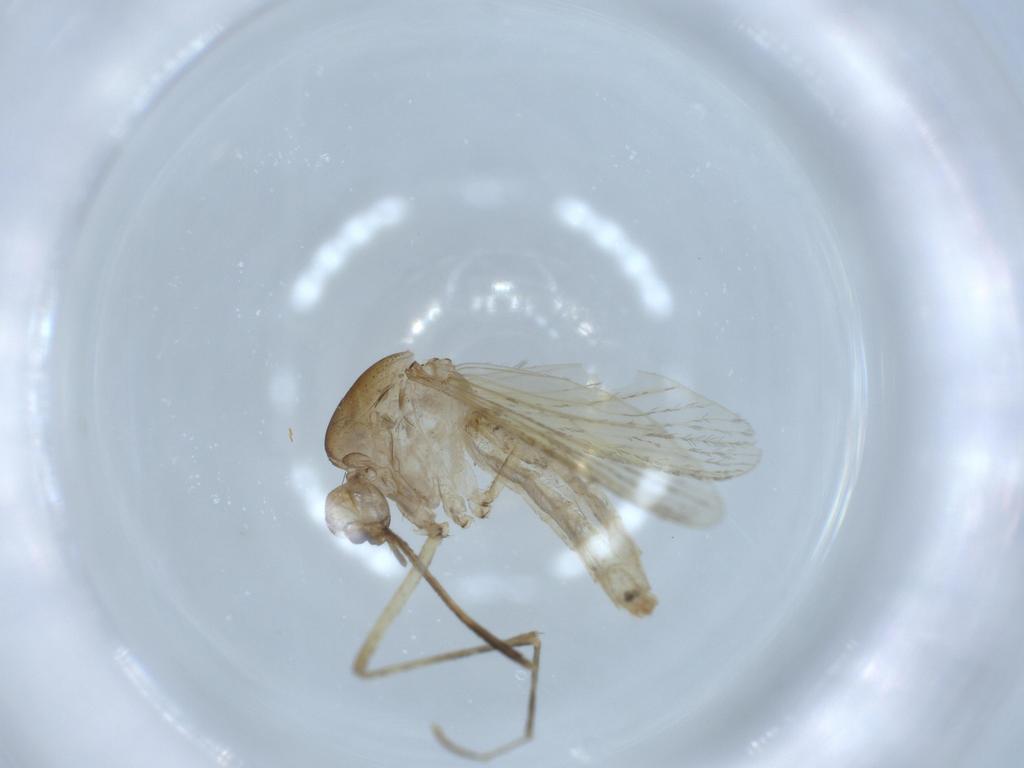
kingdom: Animalia
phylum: Arthropoda
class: Insecta
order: Diptera
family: Culicidae
